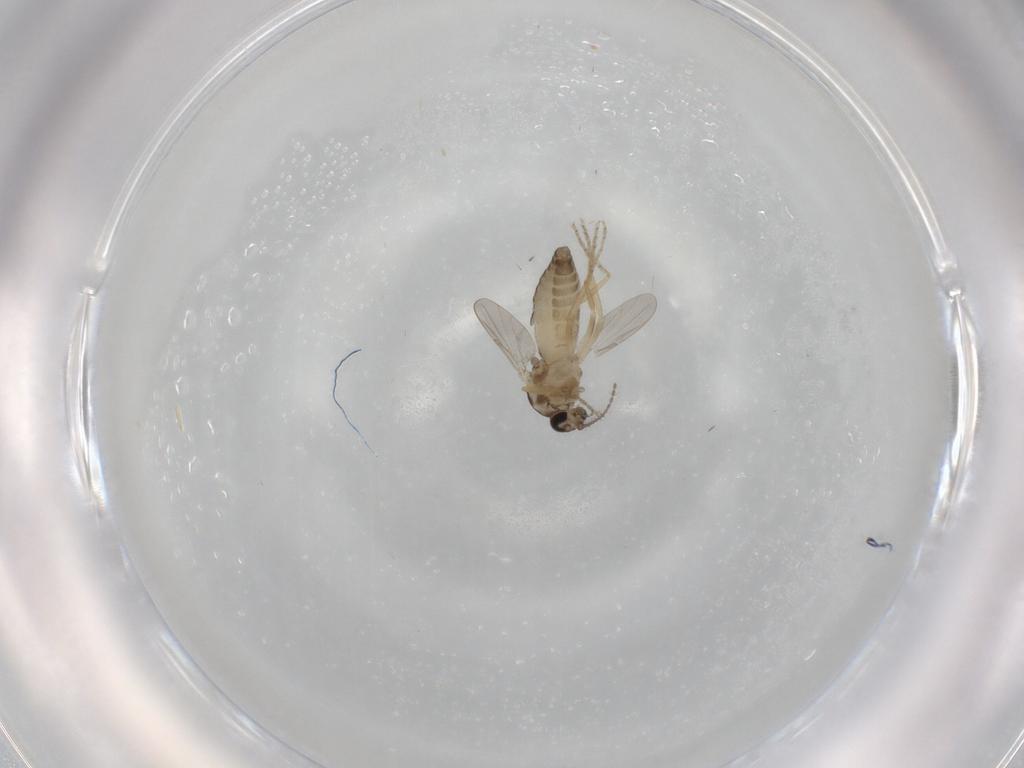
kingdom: Animalia
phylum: Arthropoda
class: Insecta
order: Diptera
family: Ceratopogonidae
